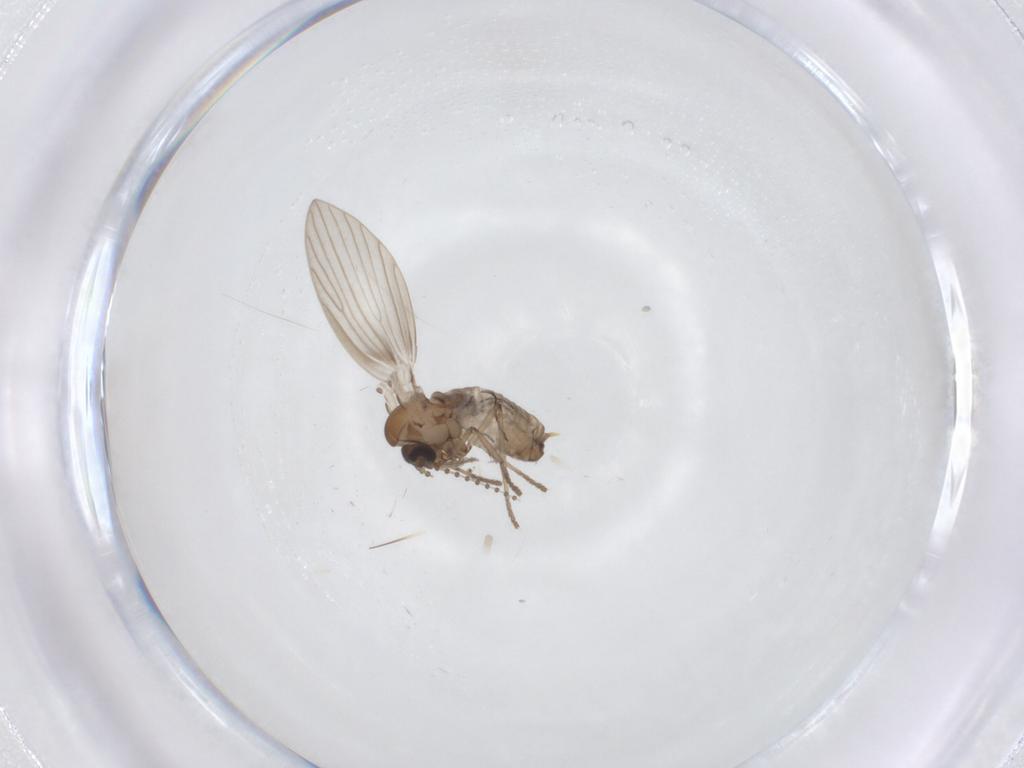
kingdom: Animalia
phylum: Arthropoda
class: Insecta
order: Diptera
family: Psychodidae
